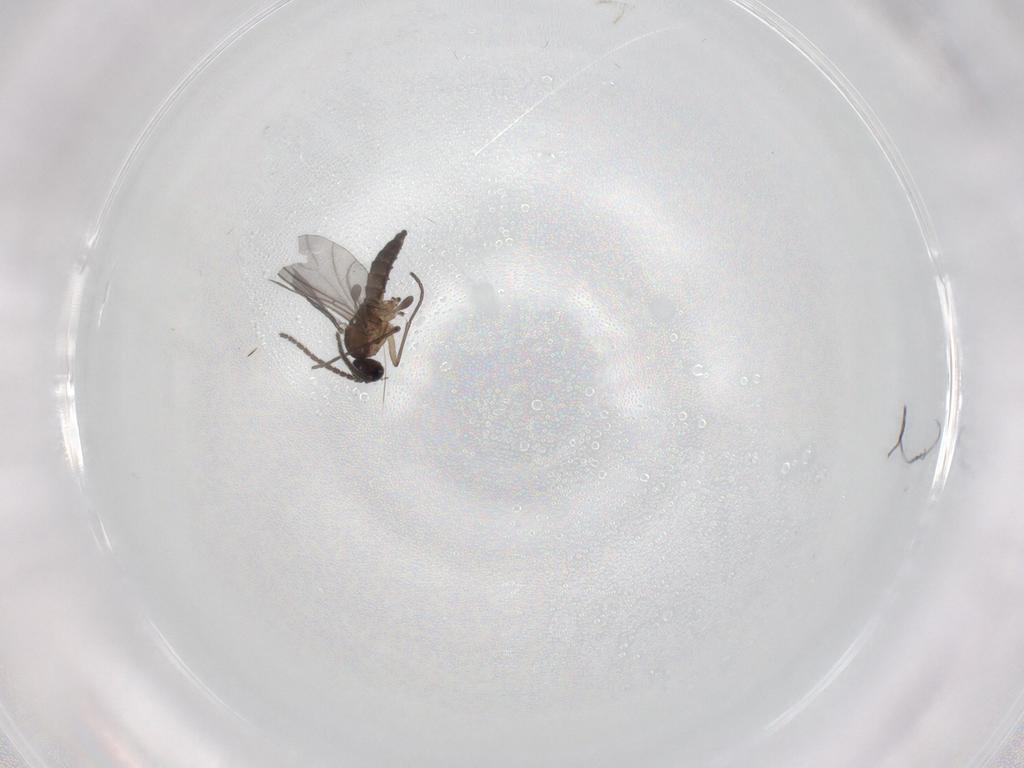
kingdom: Animalia
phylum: Arthropoda
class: Insecta
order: Diptera
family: Sciaridae
